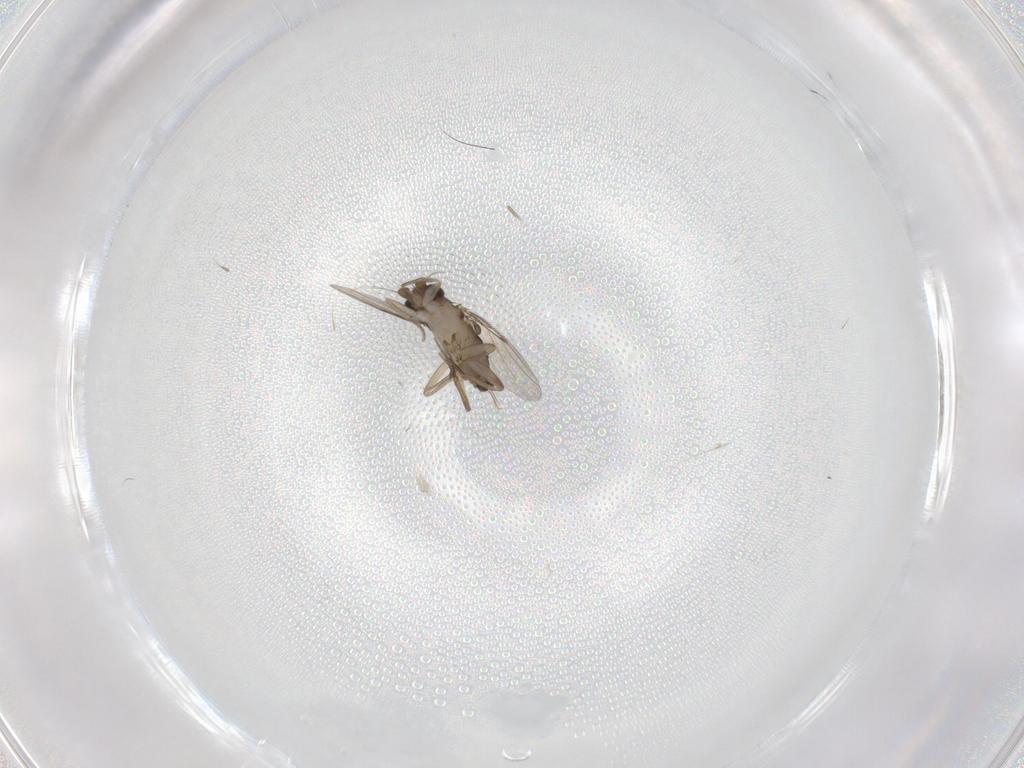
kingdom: Animalia
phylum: Arthropoda
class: Insecta
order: Diptera
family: Phoridae
